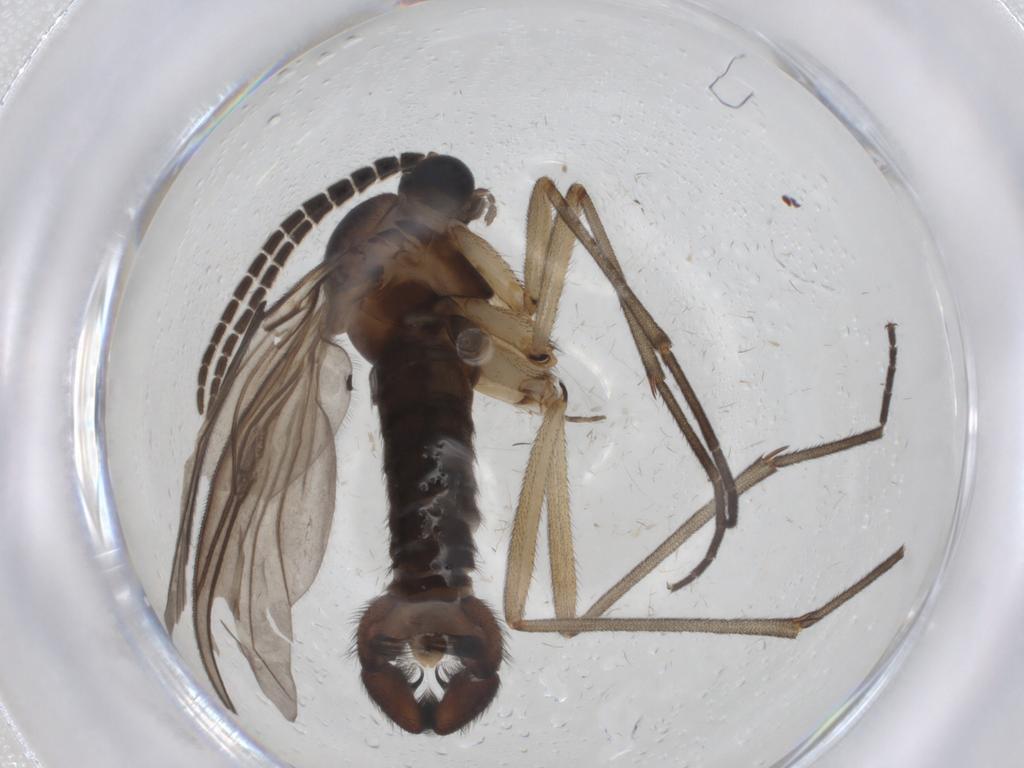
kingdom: Animalia
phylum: Arthropoda
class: Insecta
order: Diptera
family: Sciaridae
